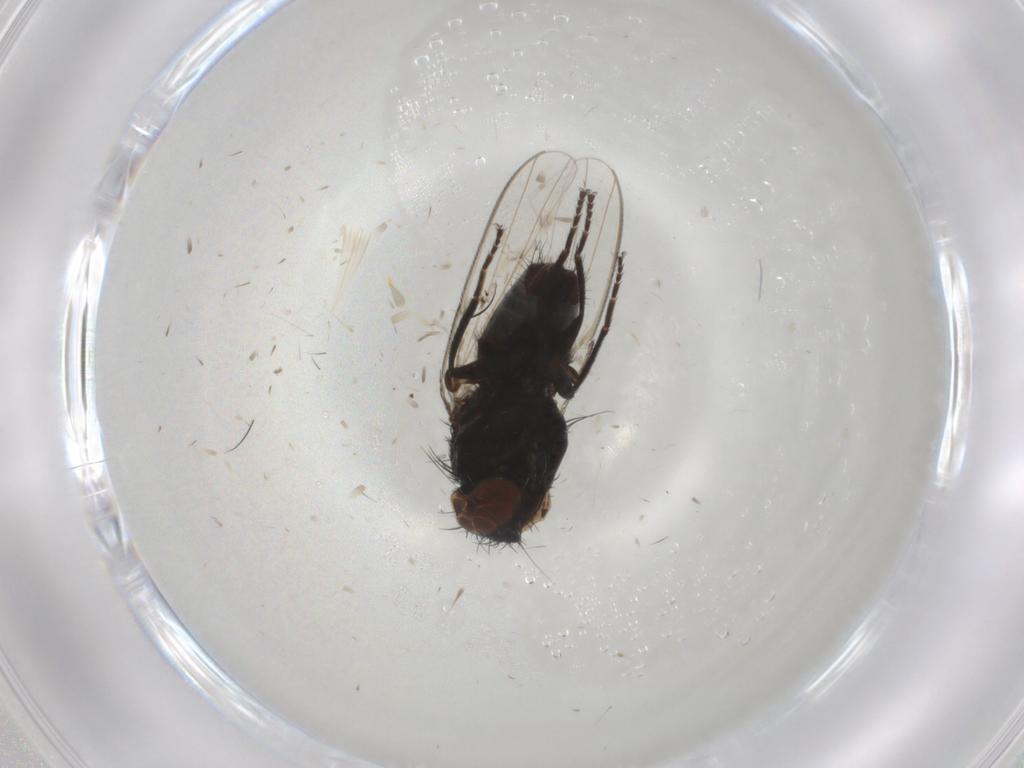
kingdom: Animalia
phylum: Arthropoda
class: Insecta
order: Diptera
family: Milichiidae
